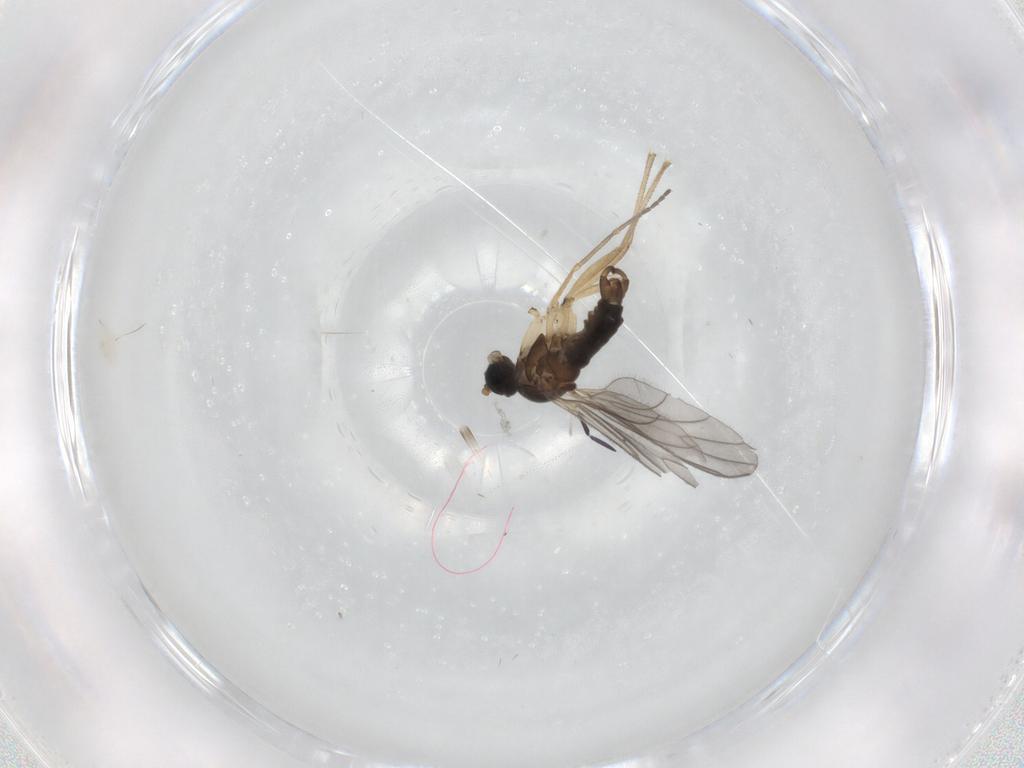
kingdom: Animalia
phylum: Arthropoda
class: Insecta
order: Diptera
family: Sciaridae
